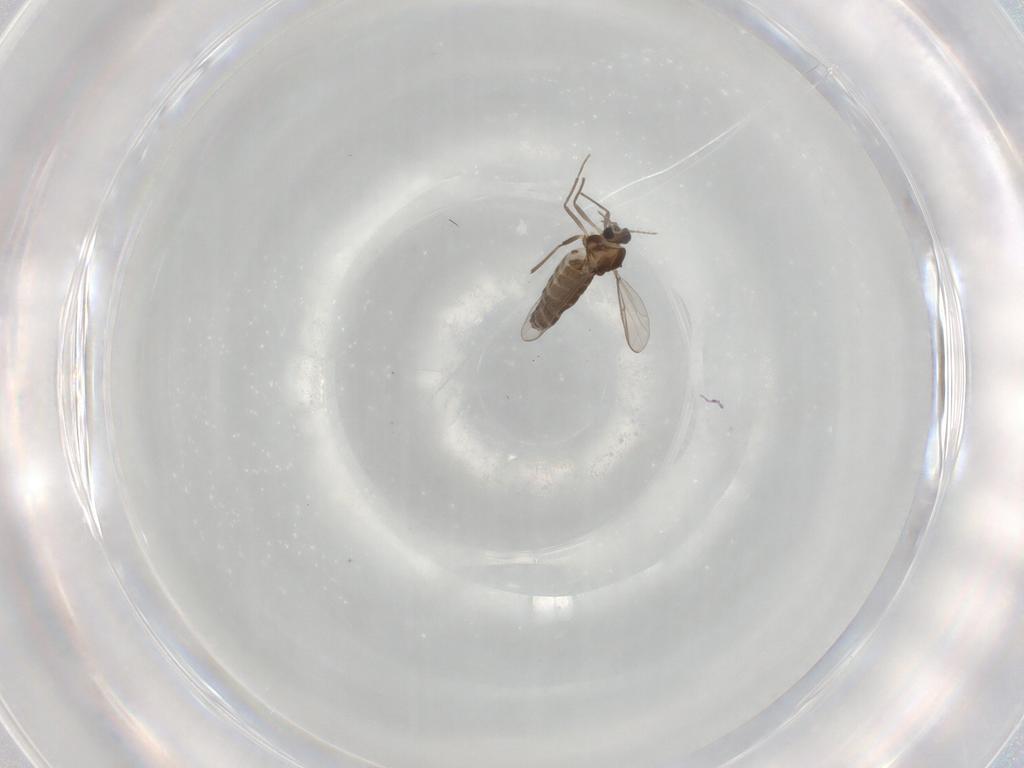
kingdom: Animalia
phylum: Arthropoda
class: Insecta
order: Diptera
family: Chironomidae
